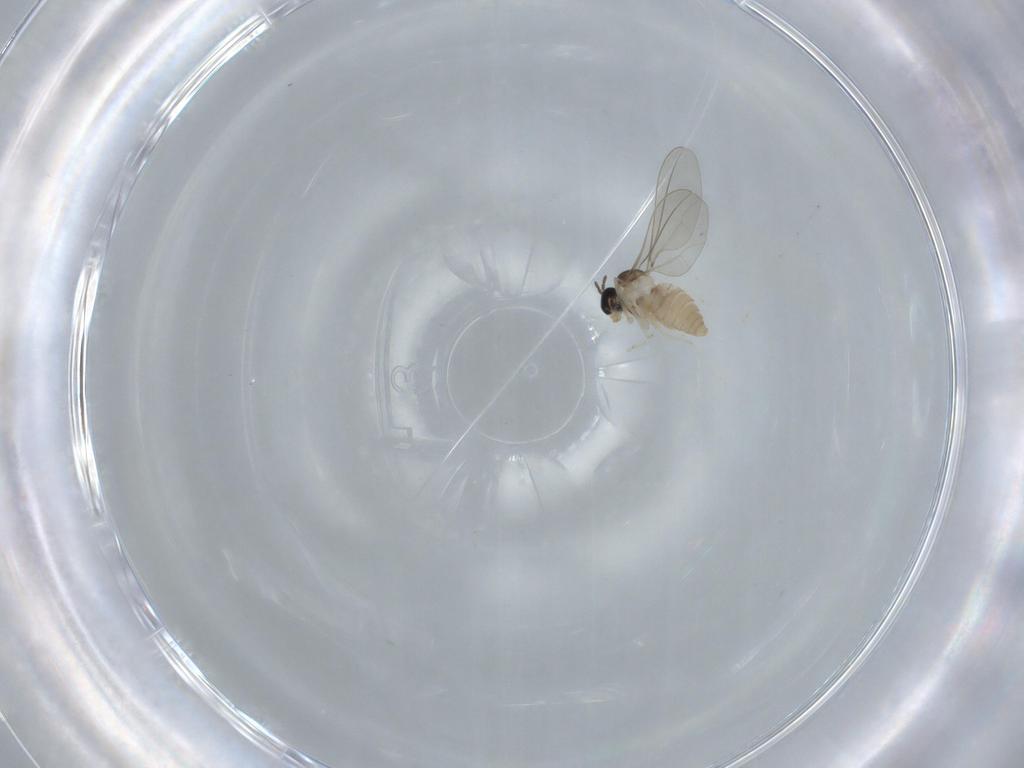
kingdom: Animalia
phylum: Arthropoda
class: Insecta
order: Diptera
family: Cecidomyiidae
